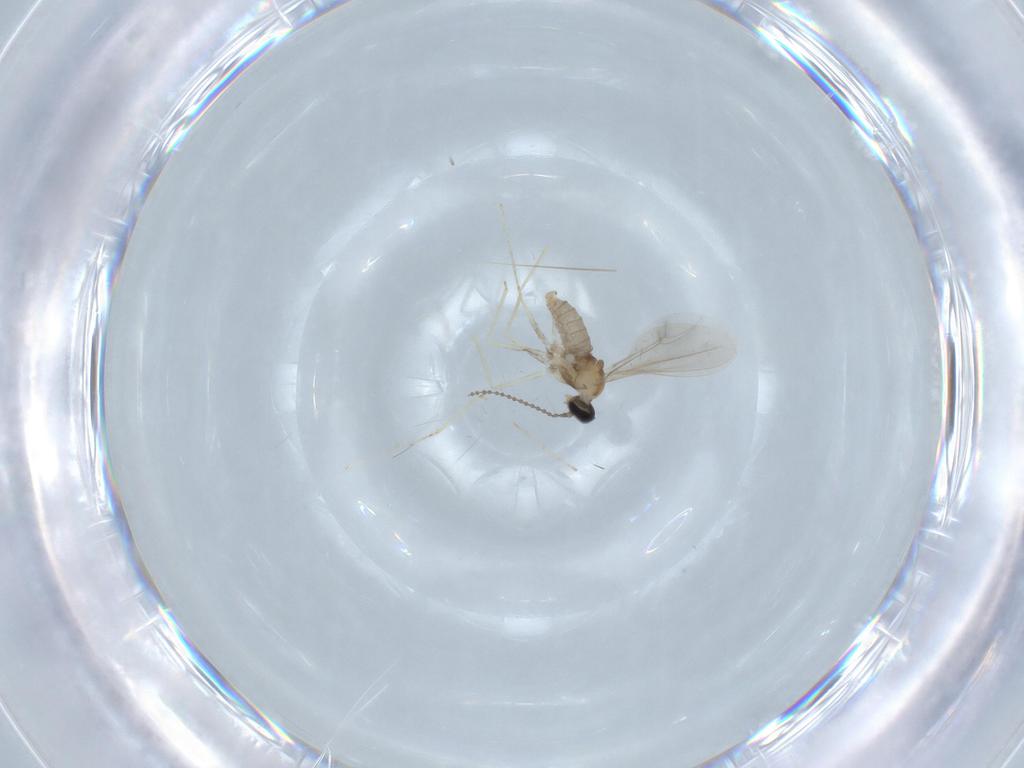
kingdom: Animalia
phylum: Arthropoda
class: Insecta
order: Diptera
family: Cecidomyiidae
